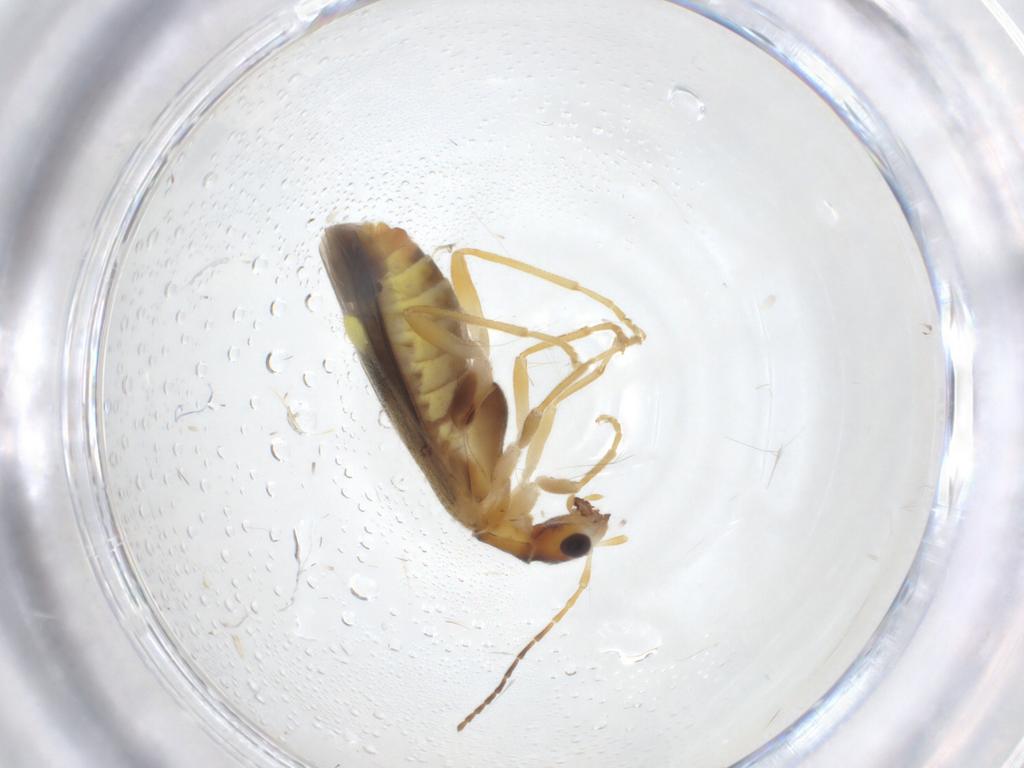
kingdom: Animalia
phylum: Arthropoda
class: Insecta
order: Coleoptera
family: Cantharidae
